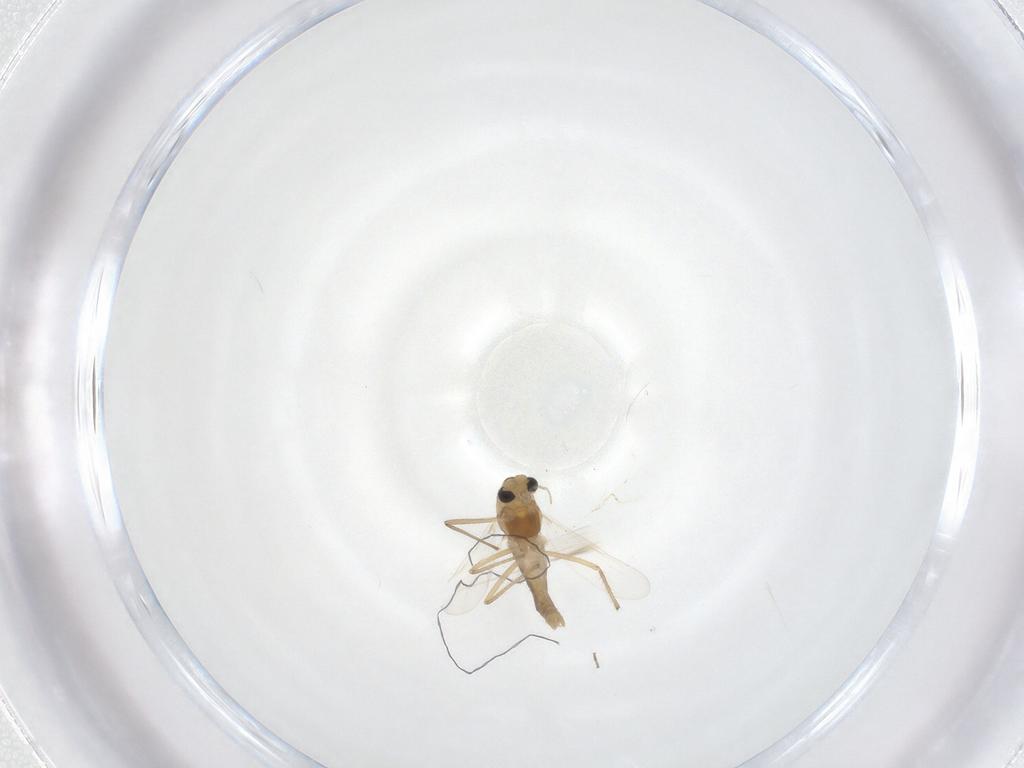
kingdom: Animalia
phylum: Arthropoda
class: Insecta
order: Diptera
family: Chironomidae
